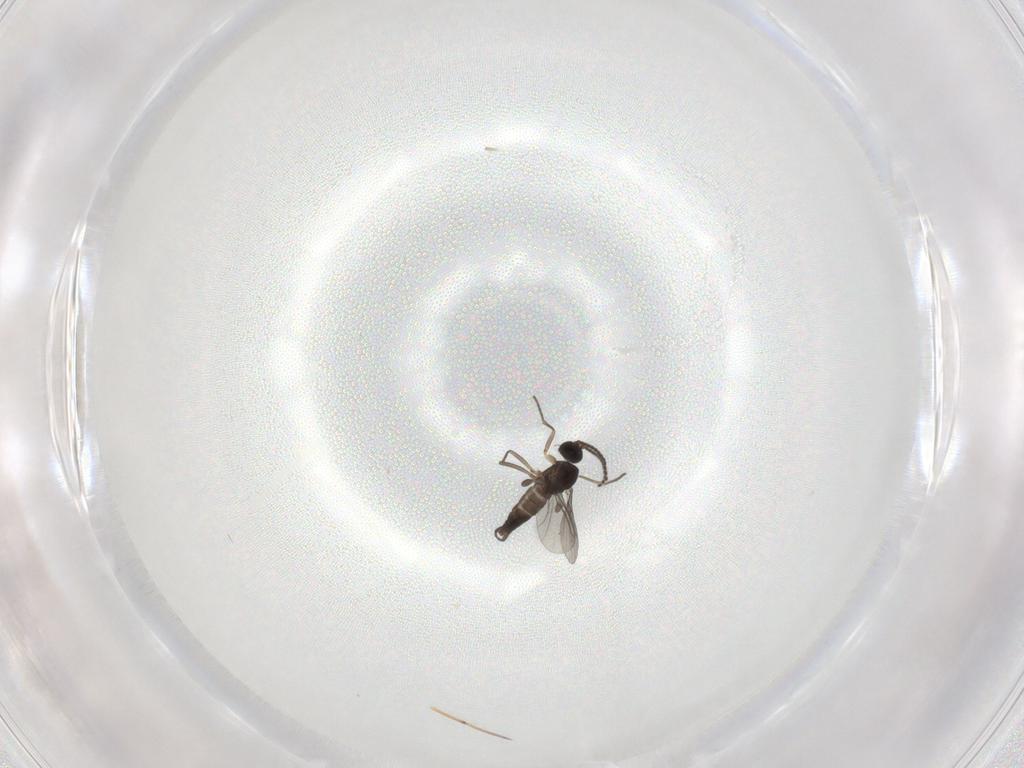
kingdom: Animalia
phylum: Arthropoda
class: Insecta
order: Diptera
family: Sciaridae
